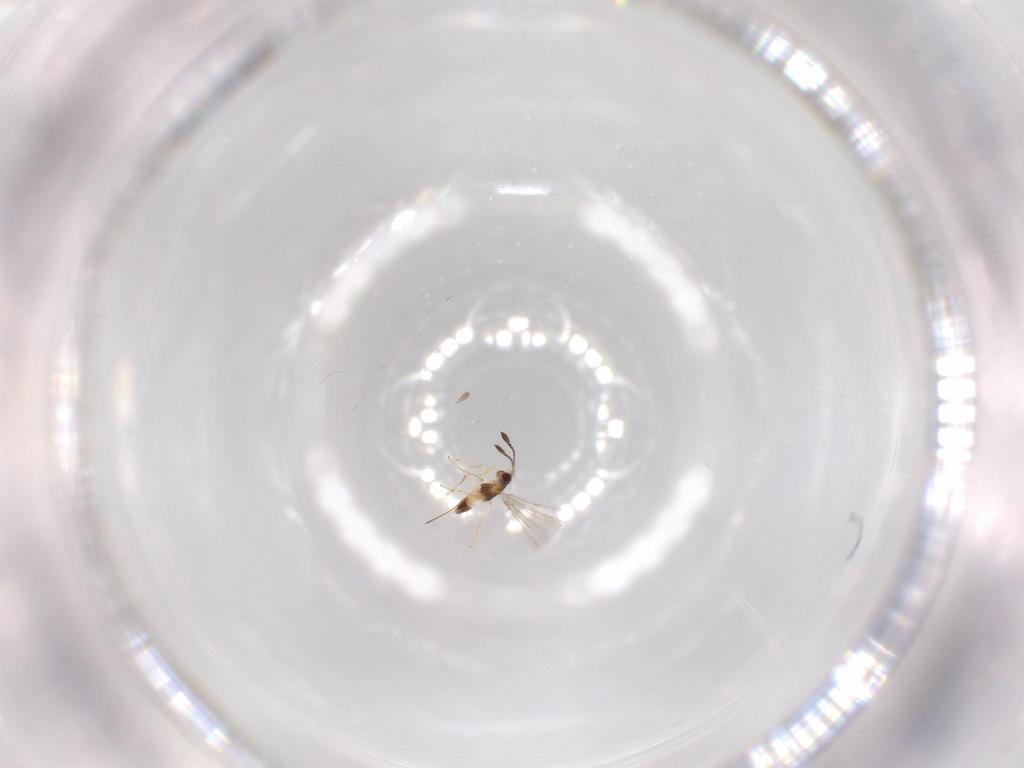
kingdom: Animalia
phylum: Arthropoda
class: Insecta
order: Hymenoptera
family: Mymaridae
